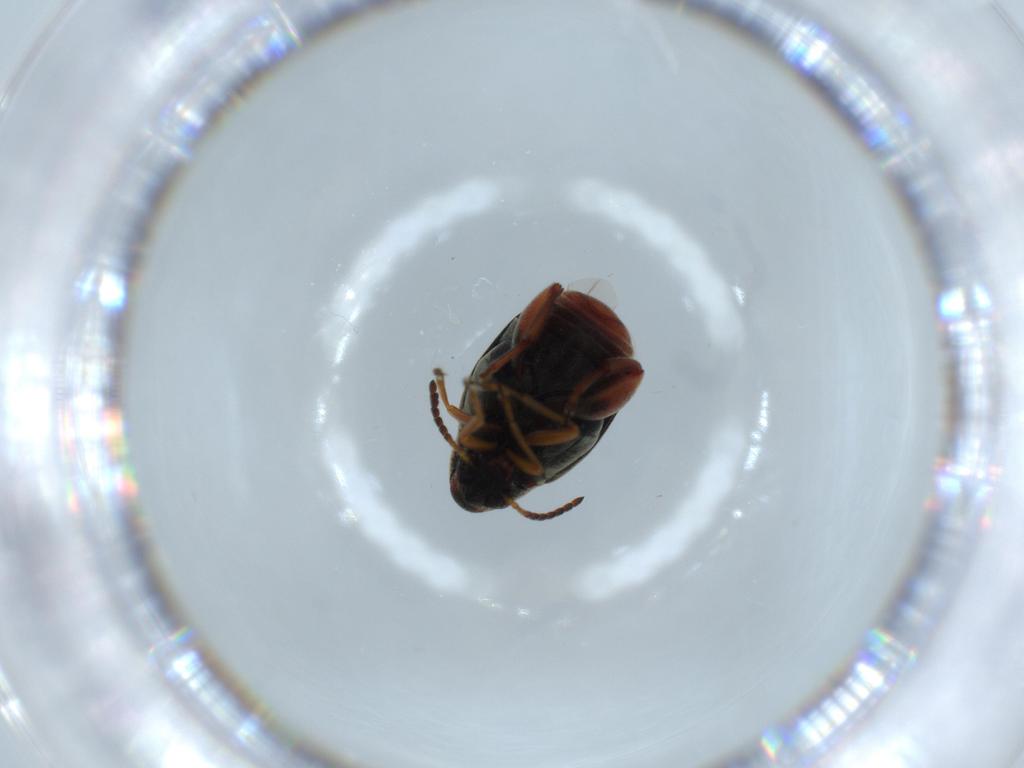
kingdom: Animalia
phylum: Arthropoda
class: Insecta
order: Coleoptera
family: Chrysomelidae
